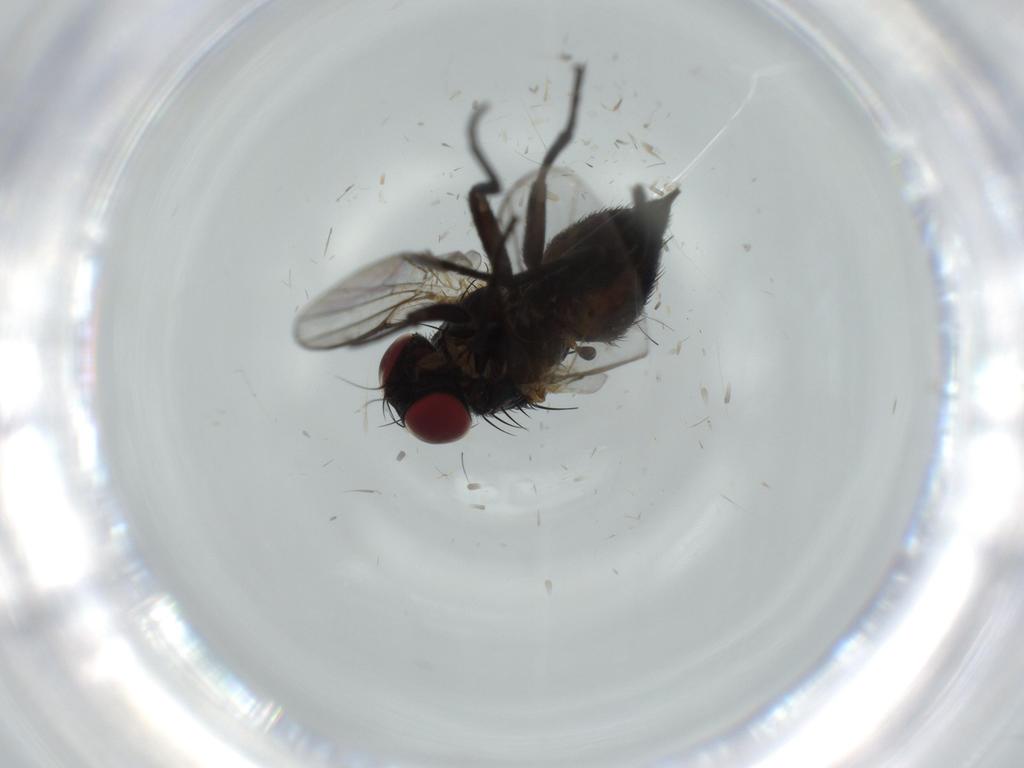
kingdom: Animalia
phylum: Arthropoda
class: Insecta
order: Diptera
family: Agromyzidae
